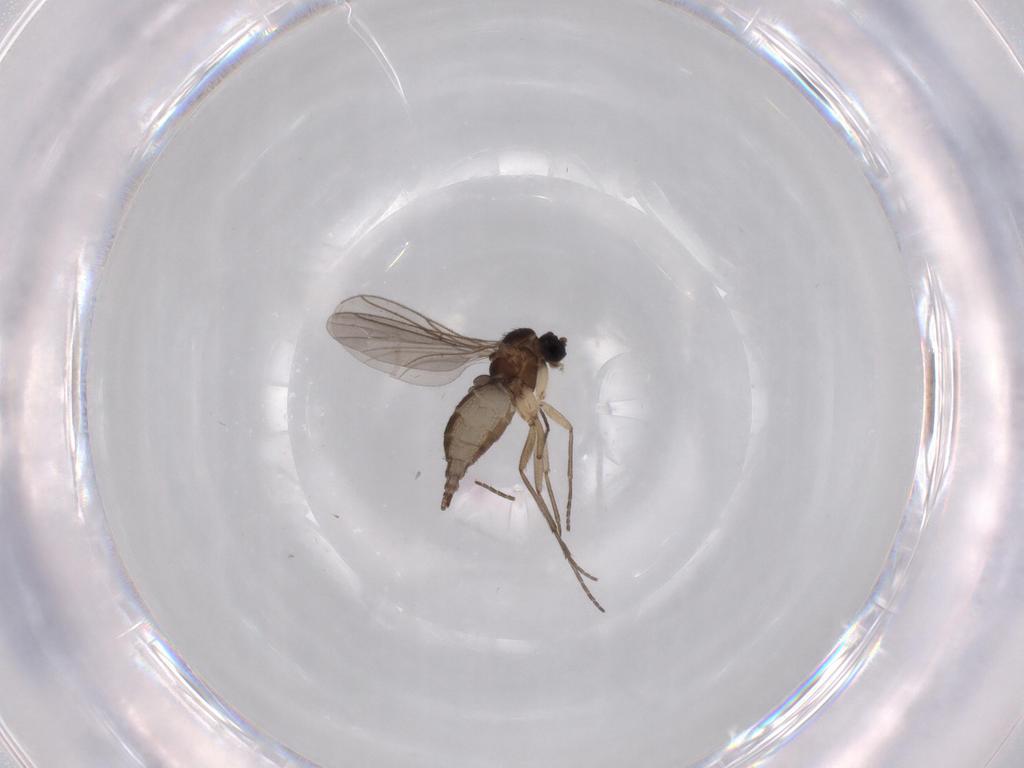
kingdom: Animalia
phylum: Arthropoda
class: Insecta
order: Diptera
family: Sciaridae
